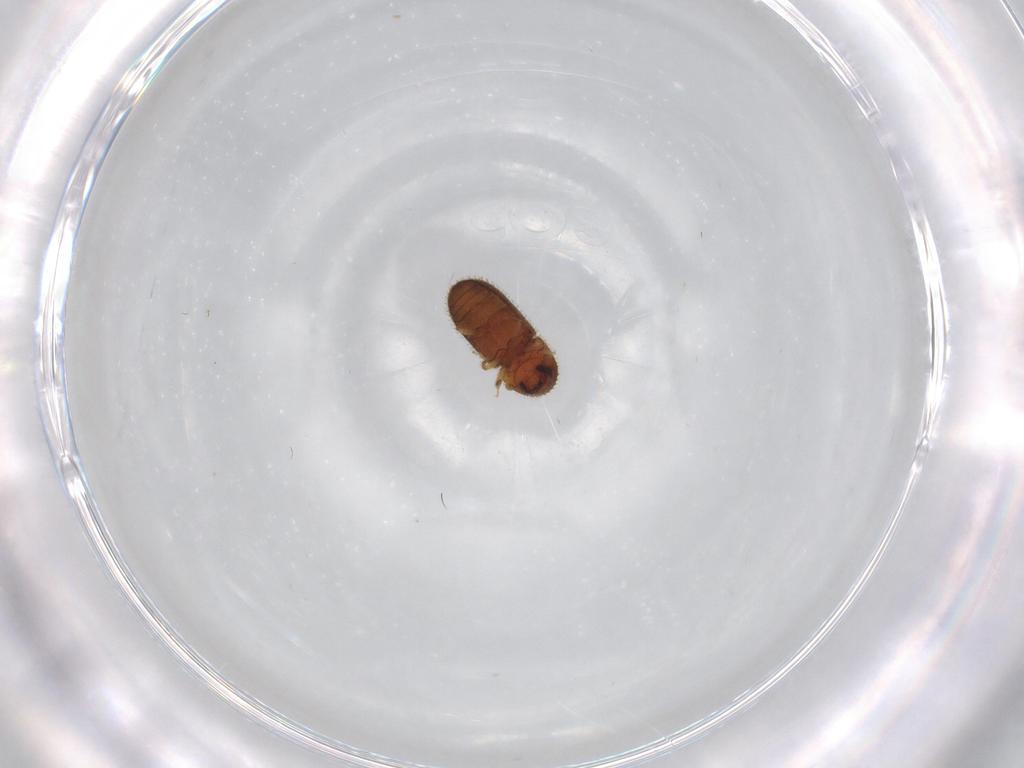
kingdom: Animalia
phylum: Arthropoda
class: Insecta
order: Coleoptera
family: Curculionidae
